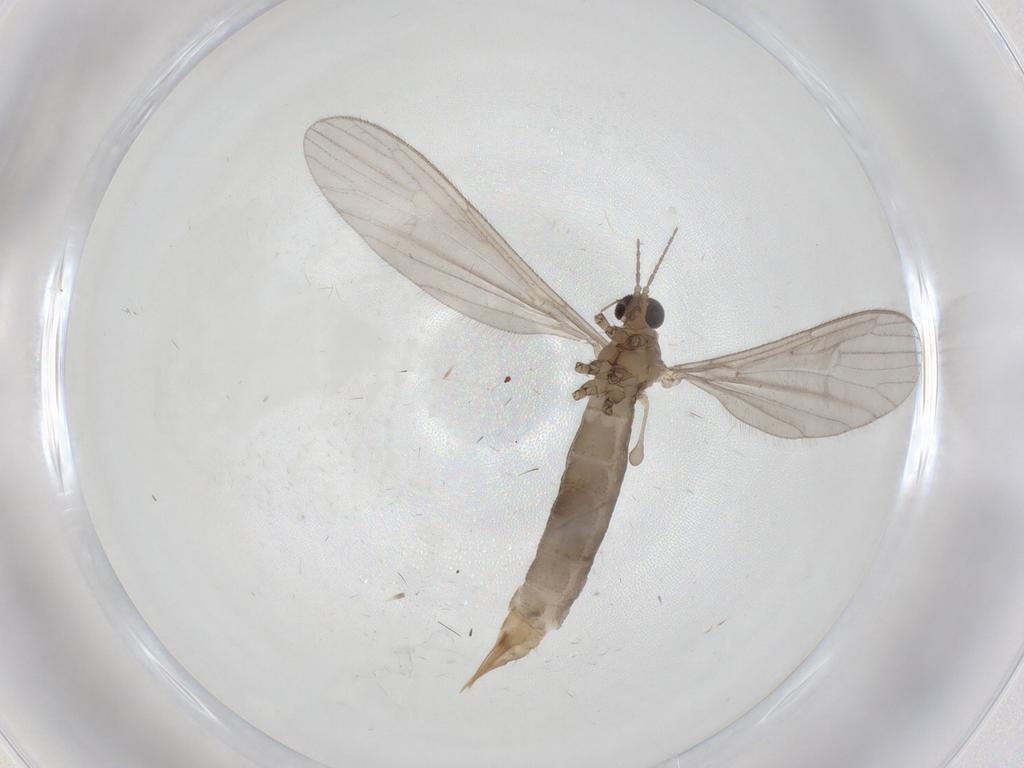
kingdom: Animalia
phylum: Arthropoda
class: Insecta
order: Diptera
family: Limoniidae
